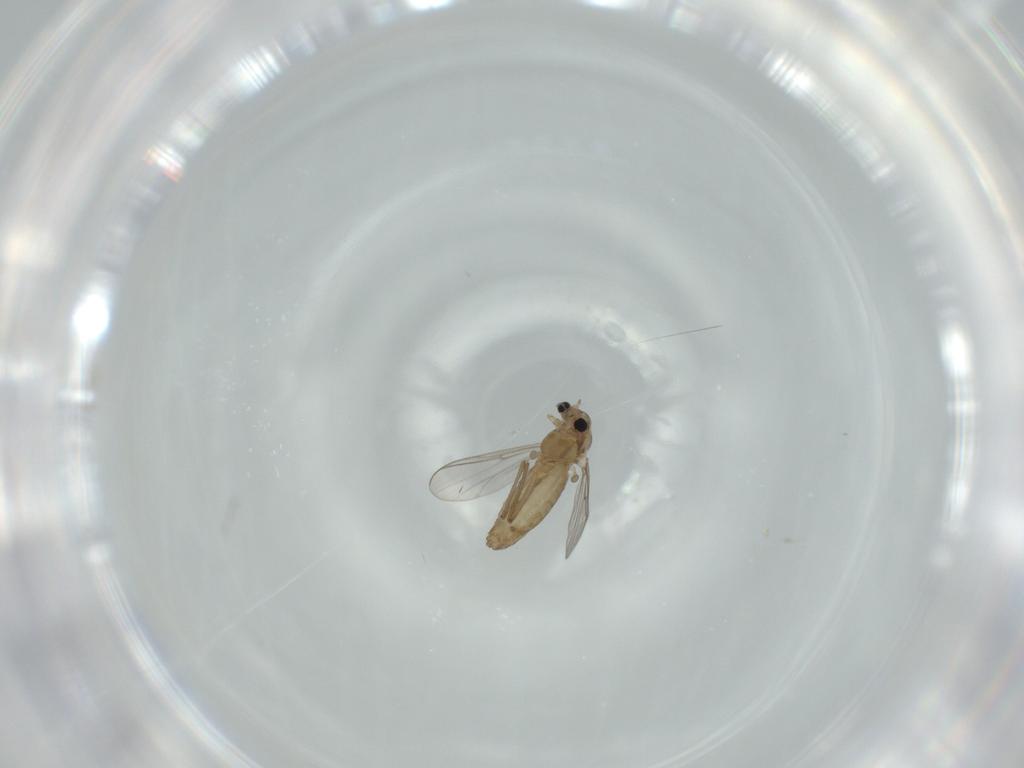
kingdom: Animalia
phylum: Arthropoda
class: Insecta
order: Diptera
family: Chironomidae
